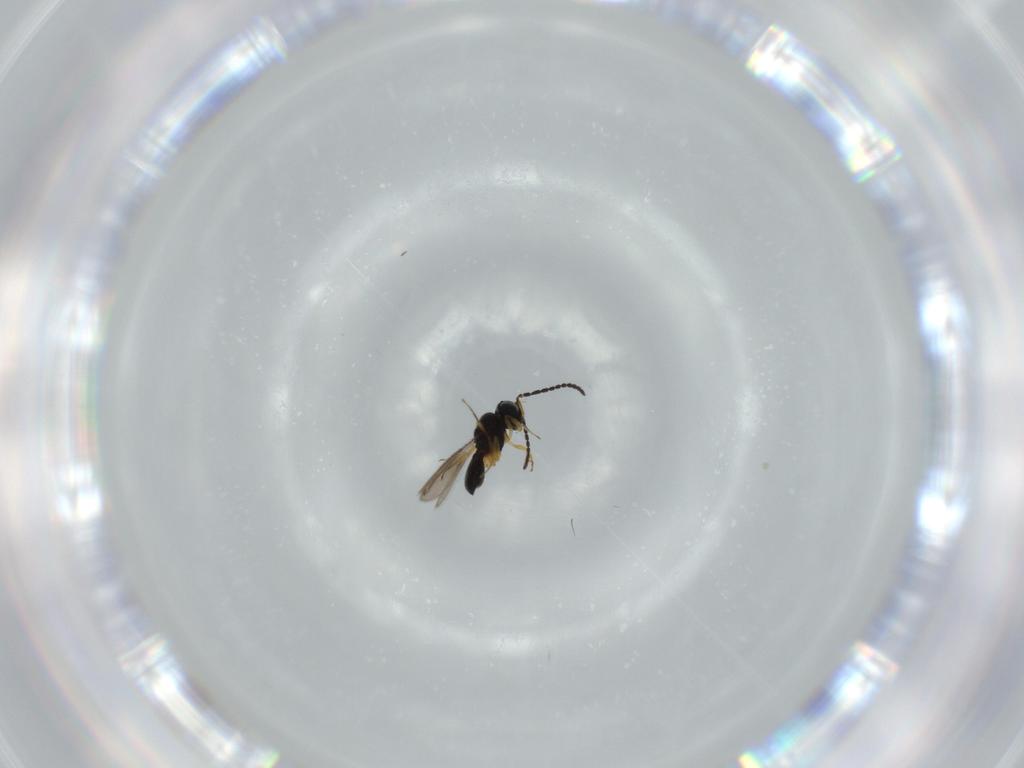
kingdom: Animalia
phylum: Arthropoda
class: Insecta
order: Hymenoptera
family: Scelionidae
